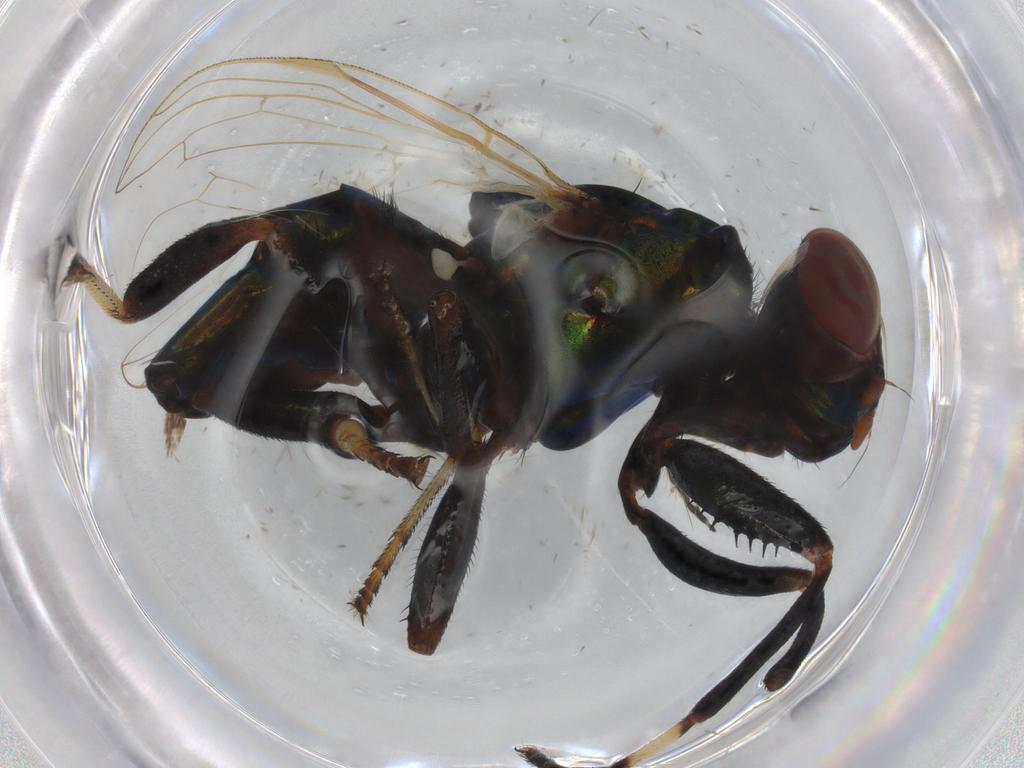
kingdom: Animalia
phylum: Arthropoda
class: Insecta
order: Diptera
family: Ulidiidae
